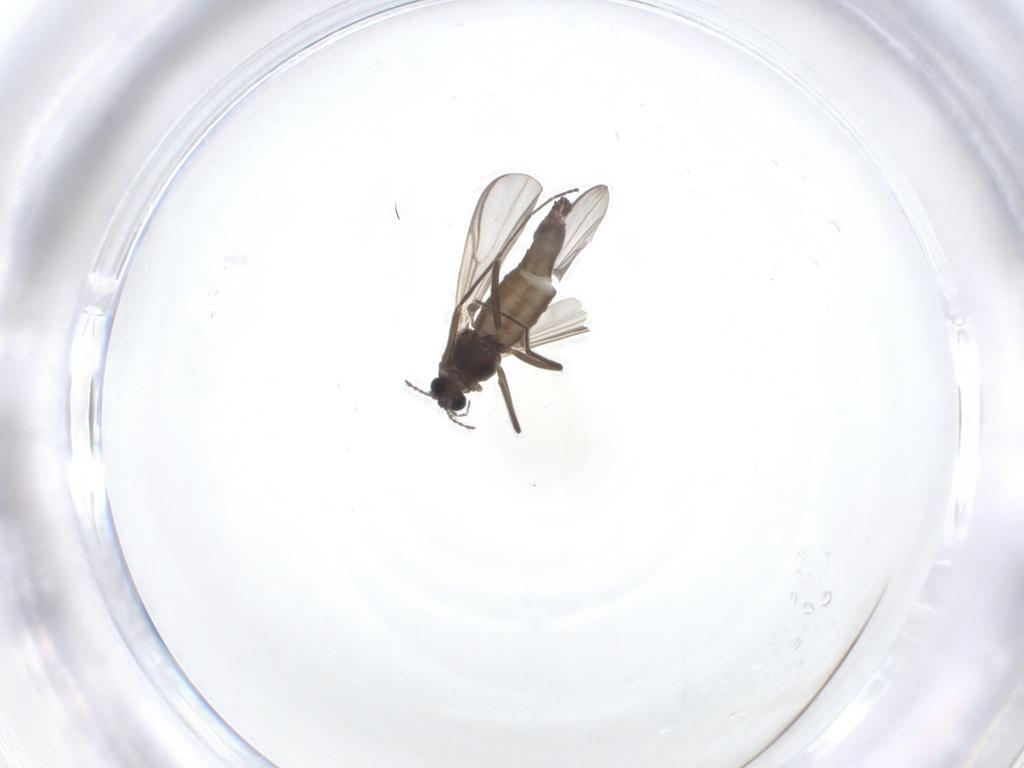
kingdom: Animalia
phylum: Arthropoda
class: Insecta
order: Diptera
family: Chironomidae
